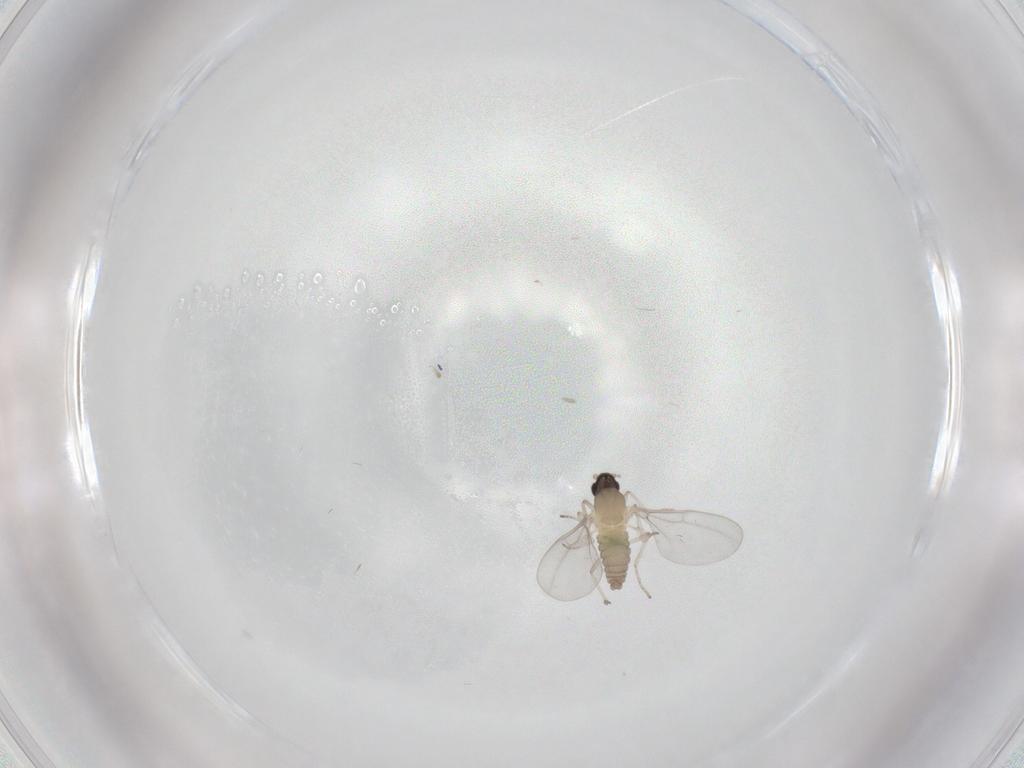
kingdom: Animalia
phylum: Arthropoda
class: Insecta
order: Diptera
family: Cecidomyiidae
